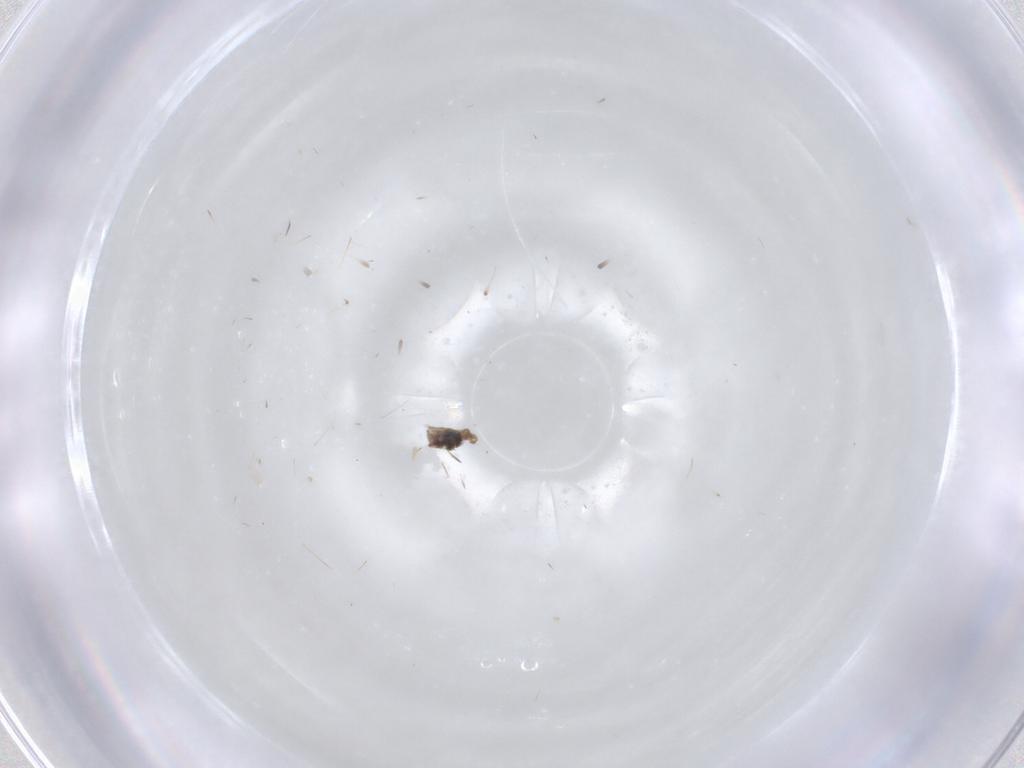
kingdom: Animalia
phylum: Arthropoda
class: Insecta
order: Diptera
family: Cecidomyiidae
